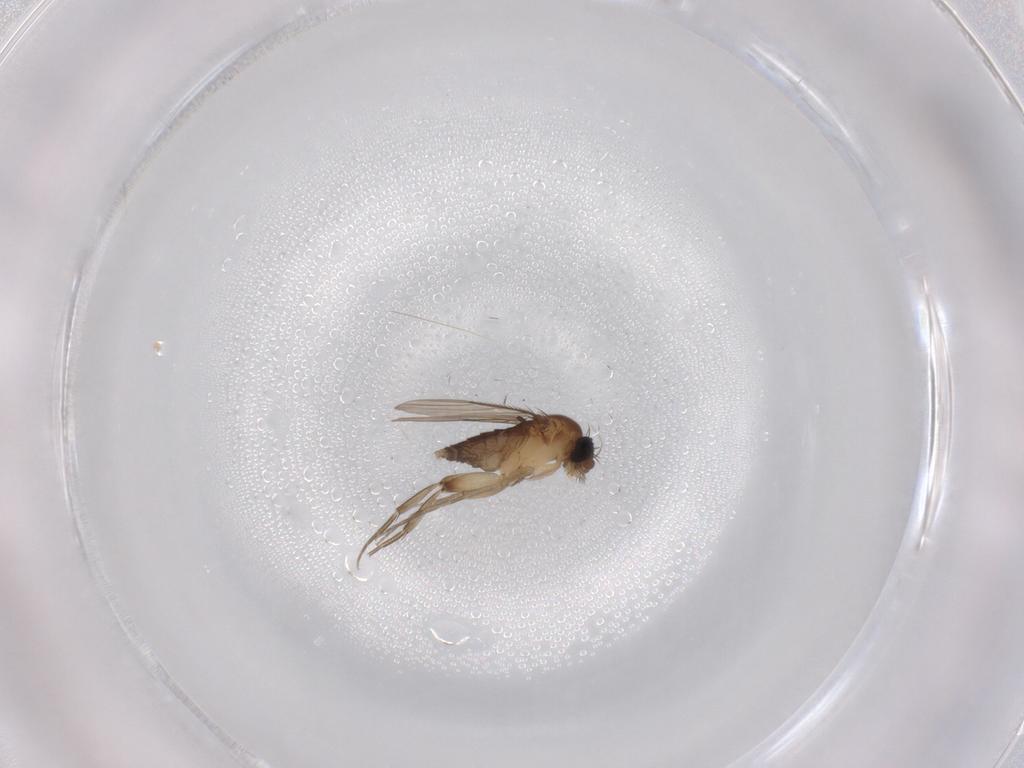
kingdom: Animalia
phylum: Arthropoda
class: Insecta
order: Diptera
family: Phoridae
